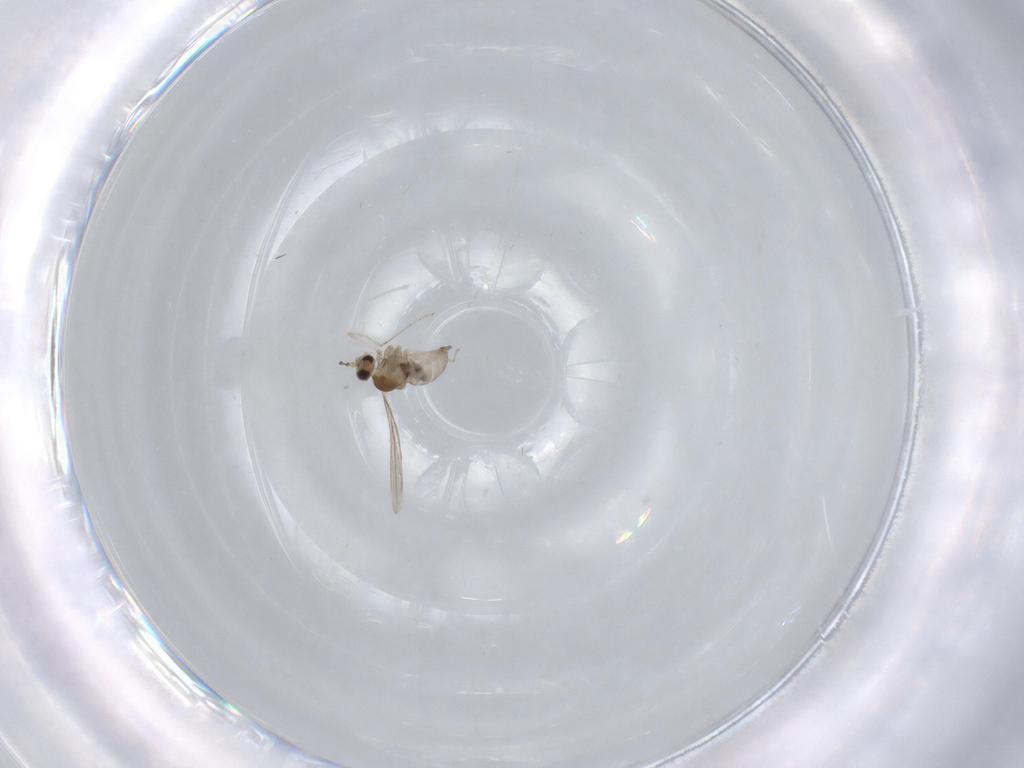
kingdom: Animalia
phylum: Arthropoda
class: Insecta
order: Diptera
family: Cecidomyiidae
